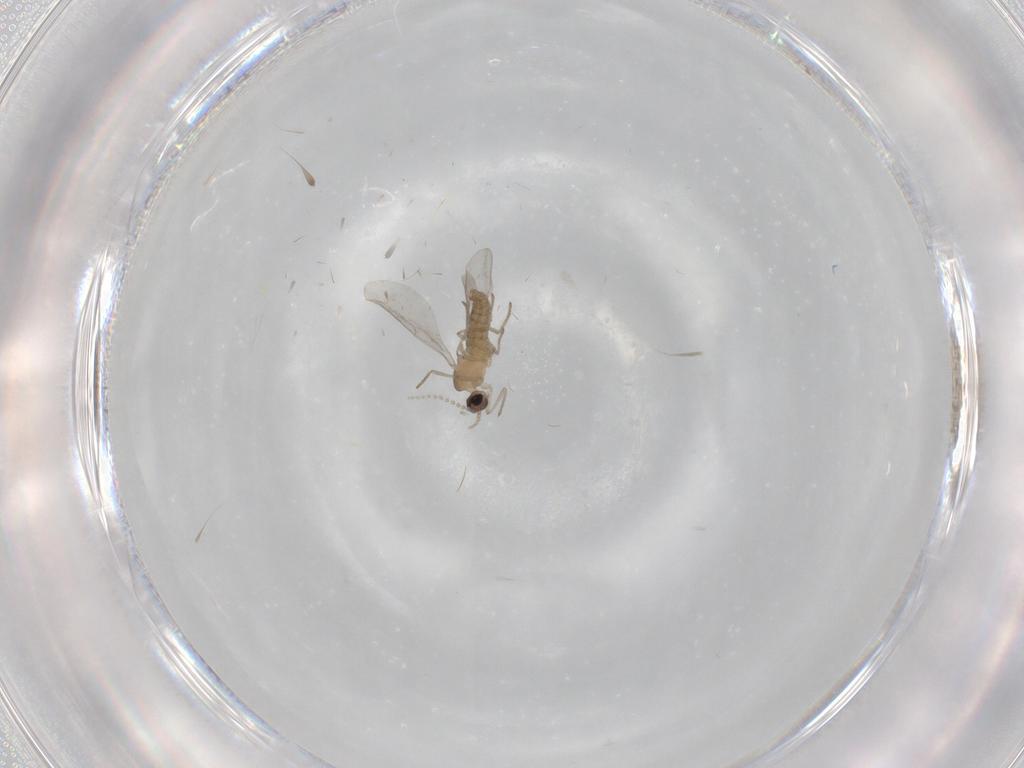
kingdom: Animalia
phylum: Arthropoda
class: Insecta
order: Diptera
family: Cecidomyiidae
